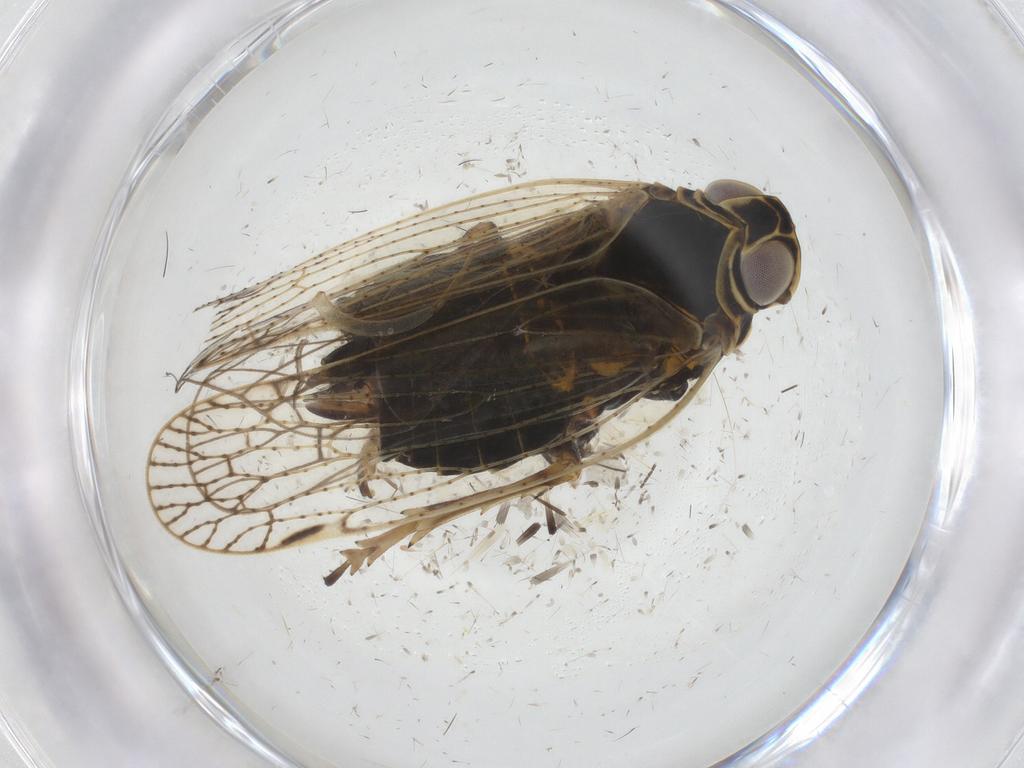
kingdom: Animalia
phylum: Arthropoda
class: Insecta
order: Hemiptera
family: Cixiidae
